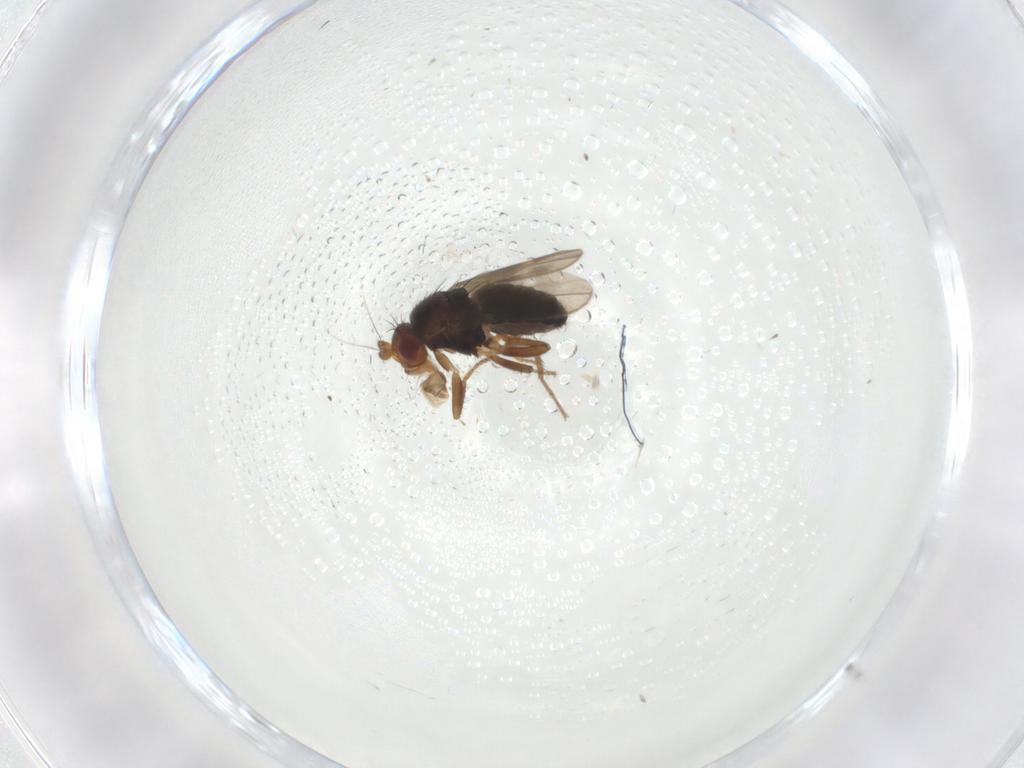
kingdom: Animalia
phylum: Arthropoda
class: Insecta
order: Diptera
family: Sphaeroceridae
